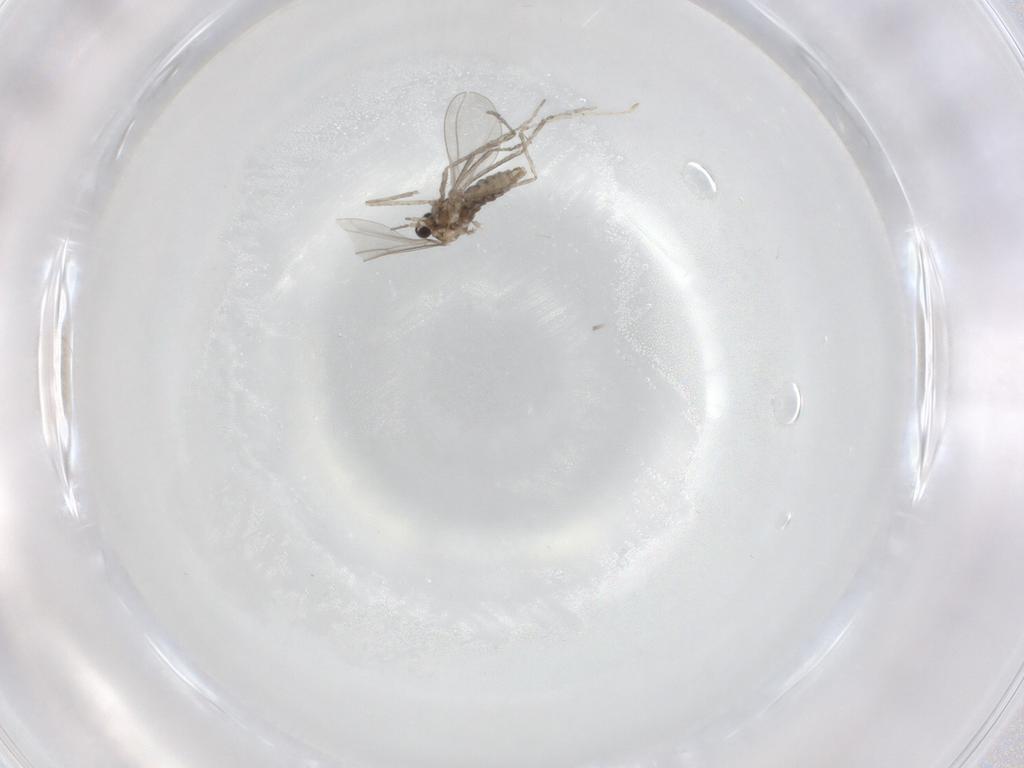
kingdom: Animalia
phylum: Arthropoda
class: Insecta
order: Diptera
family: Cecidomyiidae
